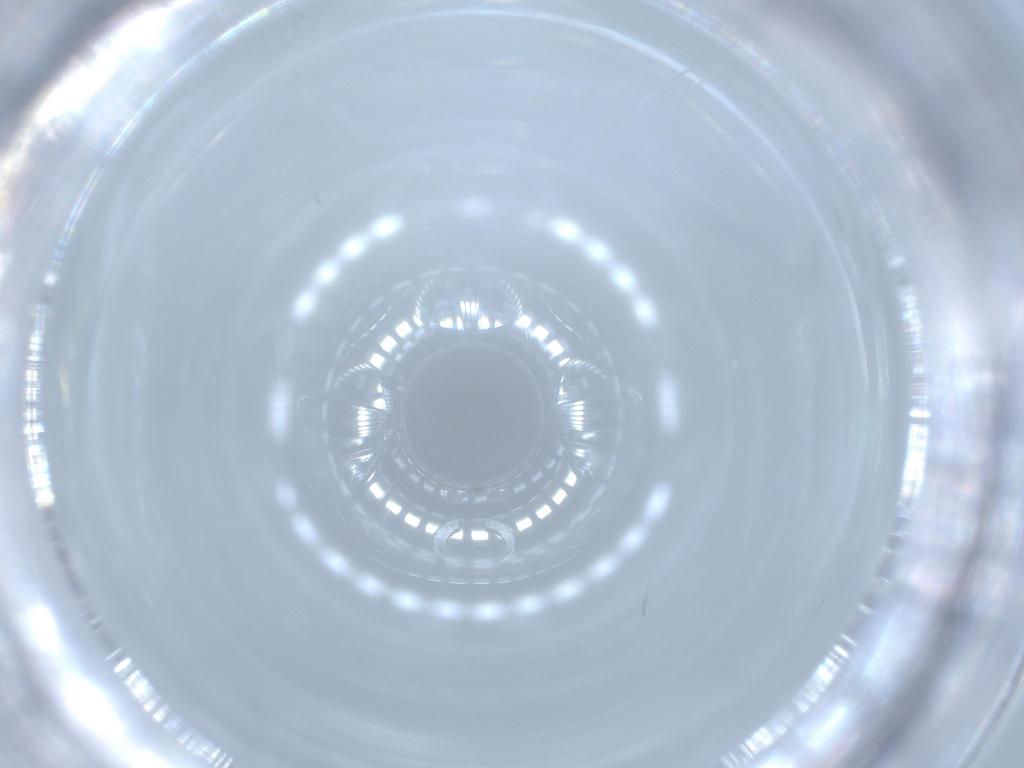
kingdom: Animalia
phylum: Arthropoda
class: Insecta
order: Diptera
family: Cecidomyiidae
